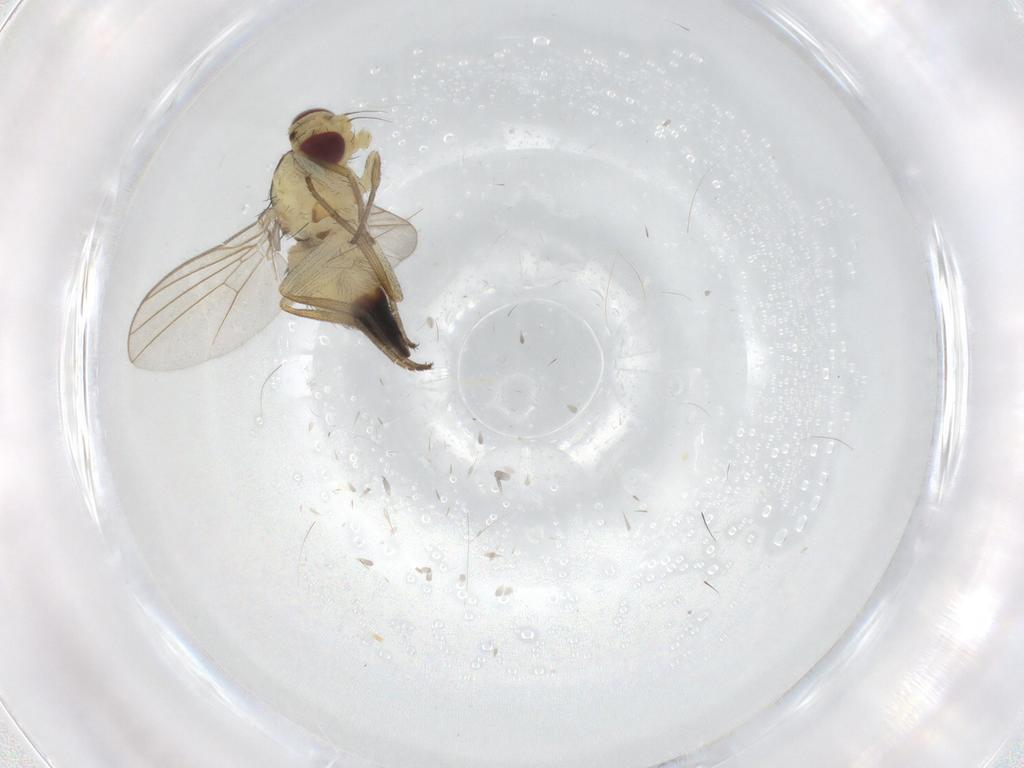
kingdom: Animalia
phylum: Arthropoda
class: Insecta
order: Diptera
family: Agromyzidae
